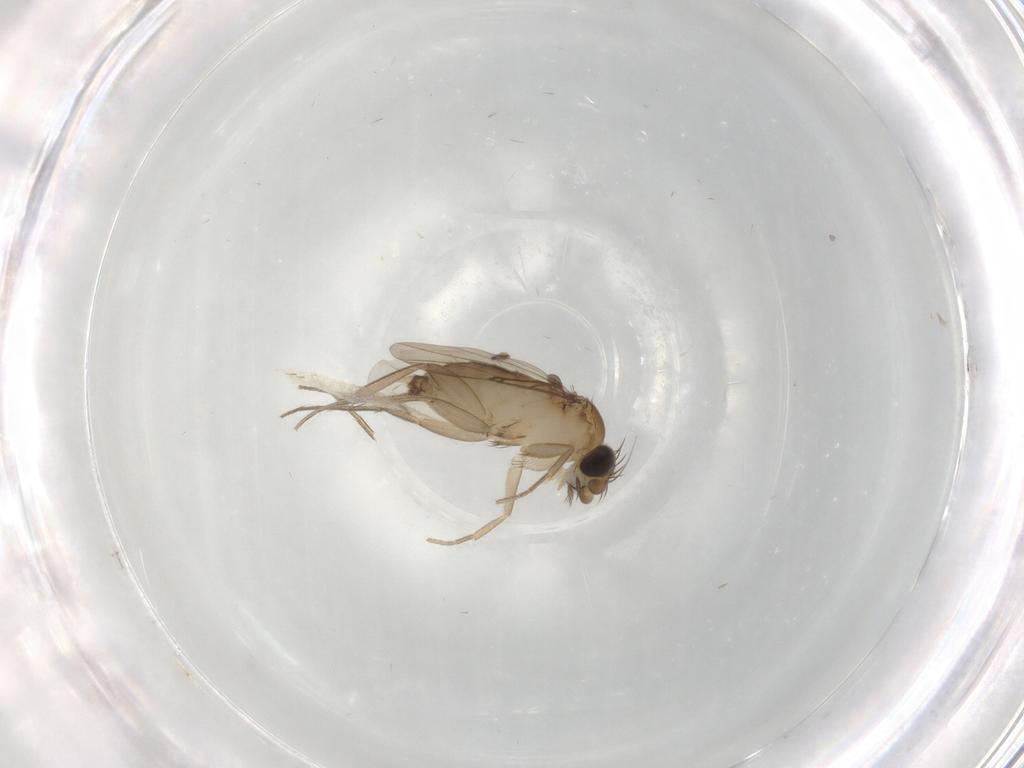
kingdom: Animalia
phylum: Arthropoda
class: Insecta
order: Diptera
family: Phoridae
